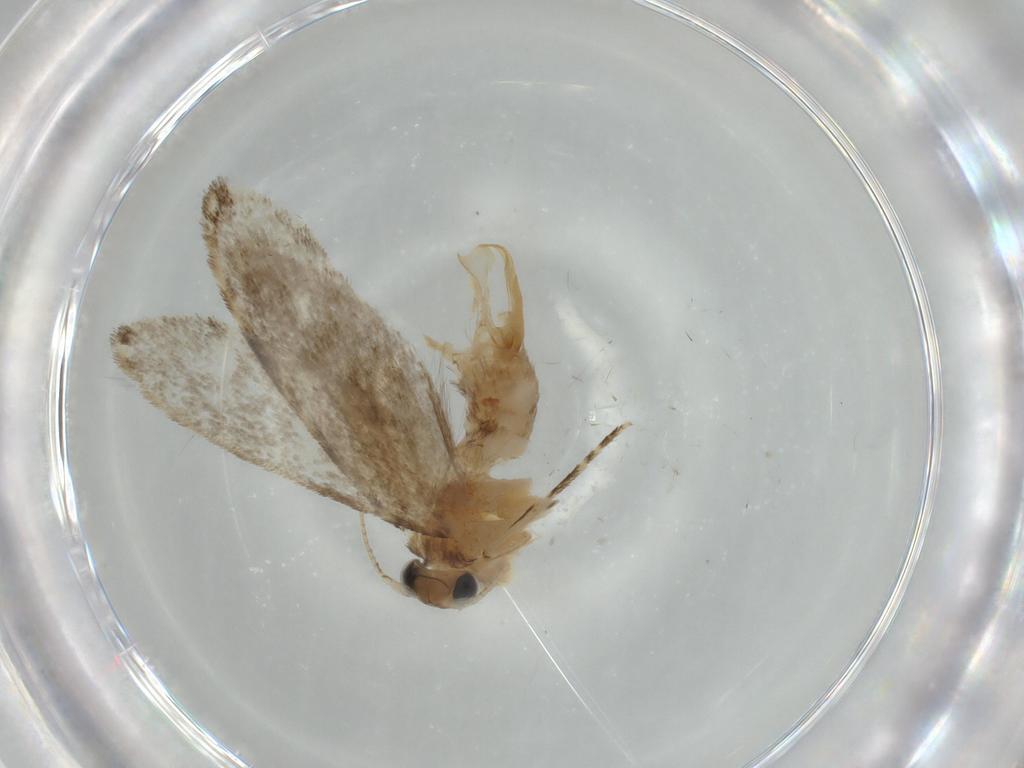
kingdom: Animalia
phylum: Arthropoda
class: Insecta
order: Lepidoptera
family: Tineidae
